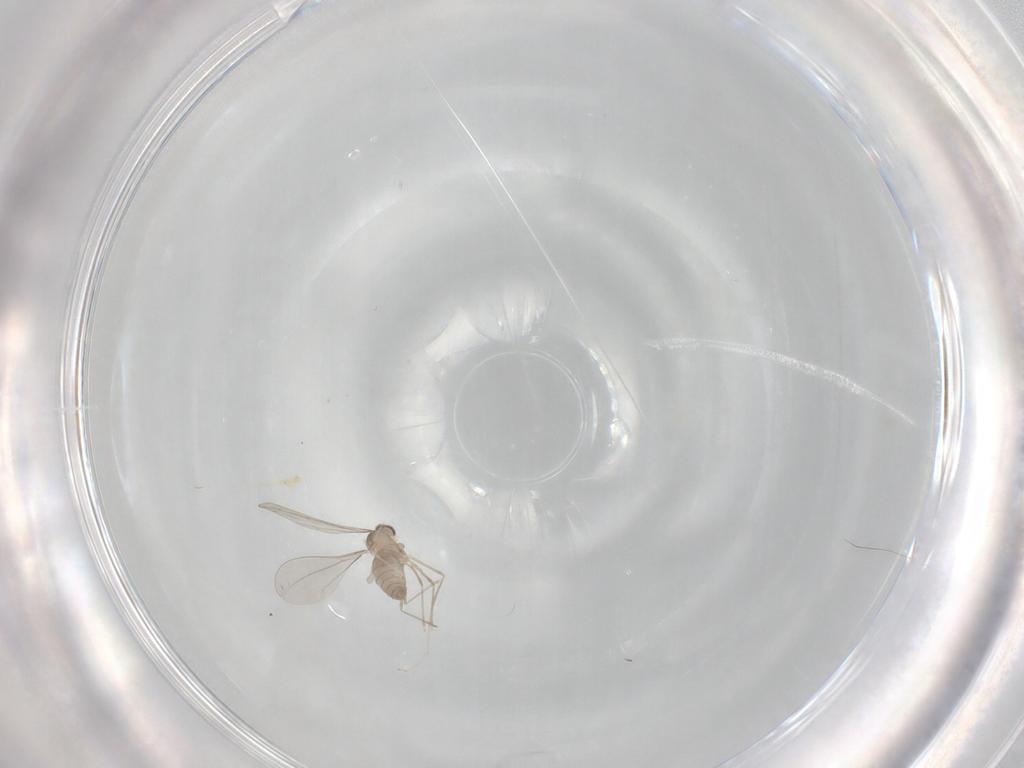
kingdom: Animalia
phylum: Arthropoda
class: Insecta
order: Diptera
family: Cecidomyiidae
